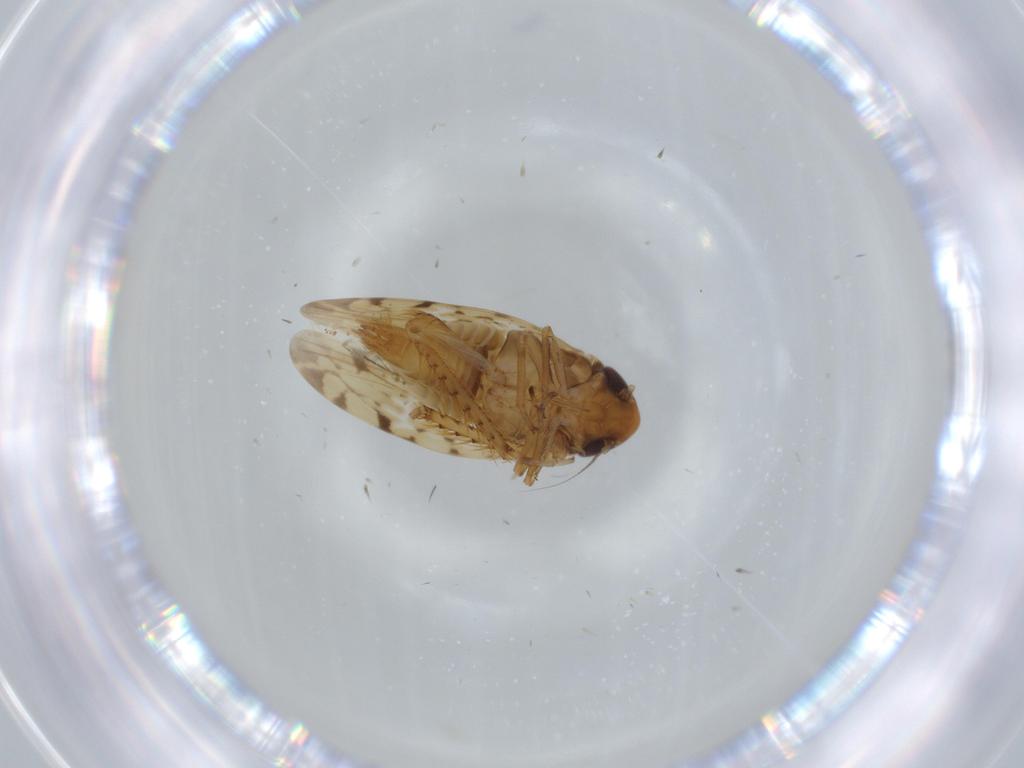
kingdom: Animalia
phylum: Arthropoda
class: Insecta
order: Hemiptera
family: Cicadellidae
